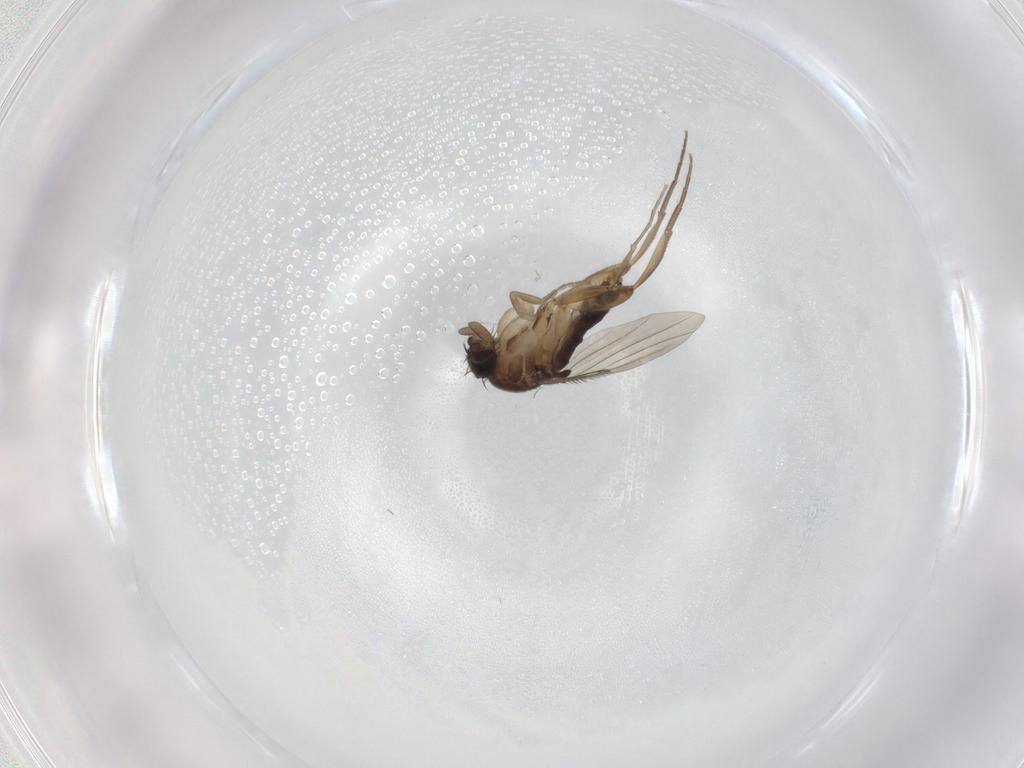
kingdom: Animalia
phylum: Arthropoda
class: Insecta
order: Diptera
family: Phoridae
